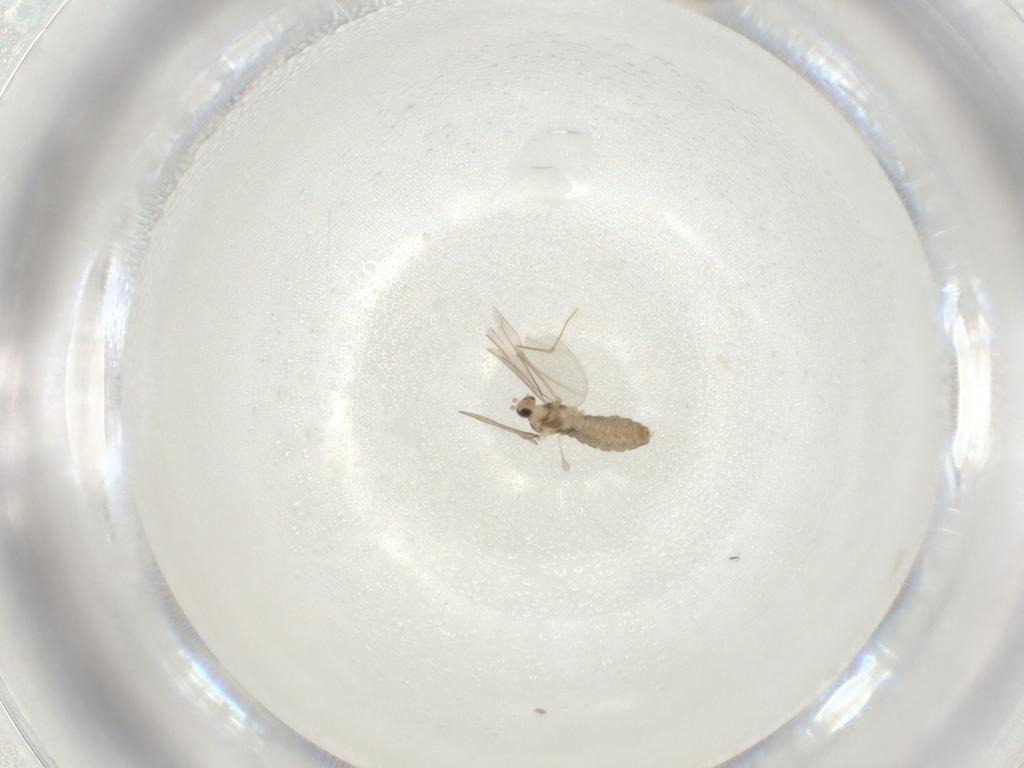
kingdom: Animalia
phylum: Arthropoda
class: Insecta
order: Diptera
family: Cecidomyiidae
